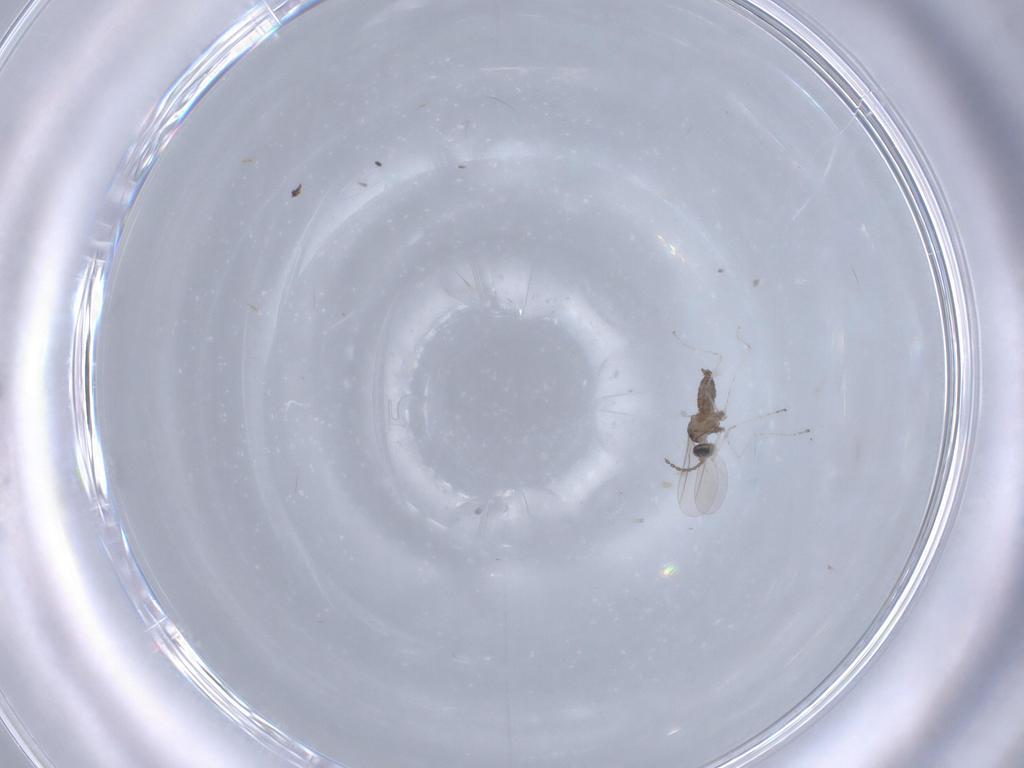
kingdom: Animalia
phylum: Arthropoda
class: Insecta
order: Diptera
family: Cecidomyiidae
